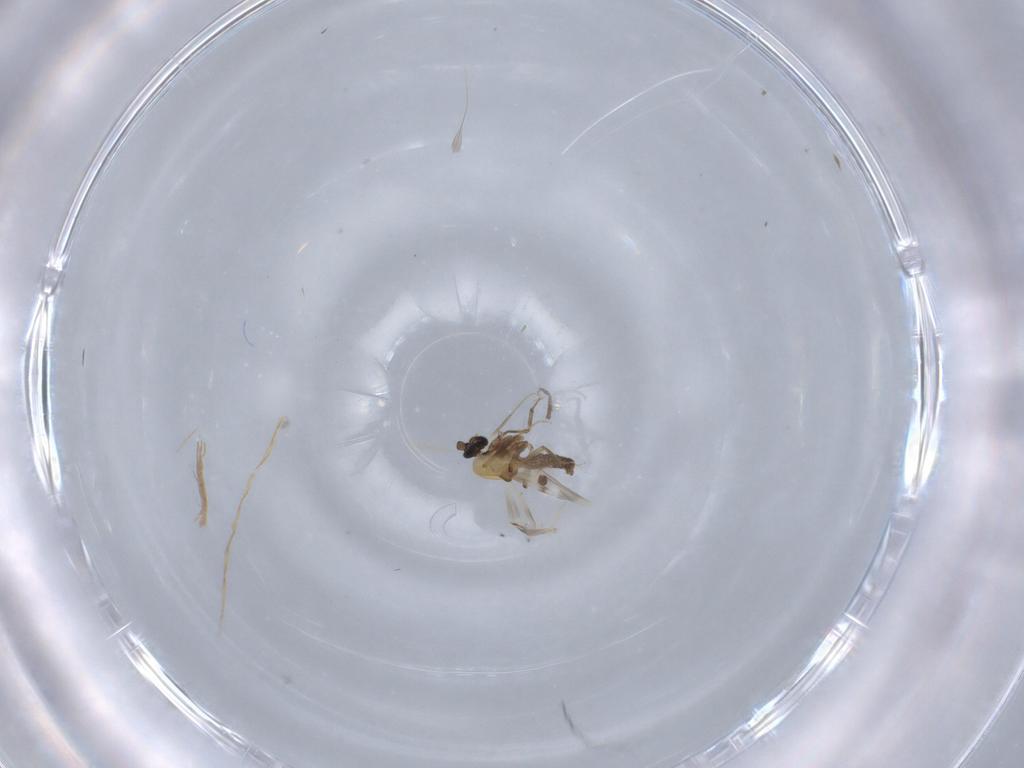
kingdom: Animalia
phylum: Arthropoda
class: Insecta
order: Diptera
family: Ceratopogonidae
